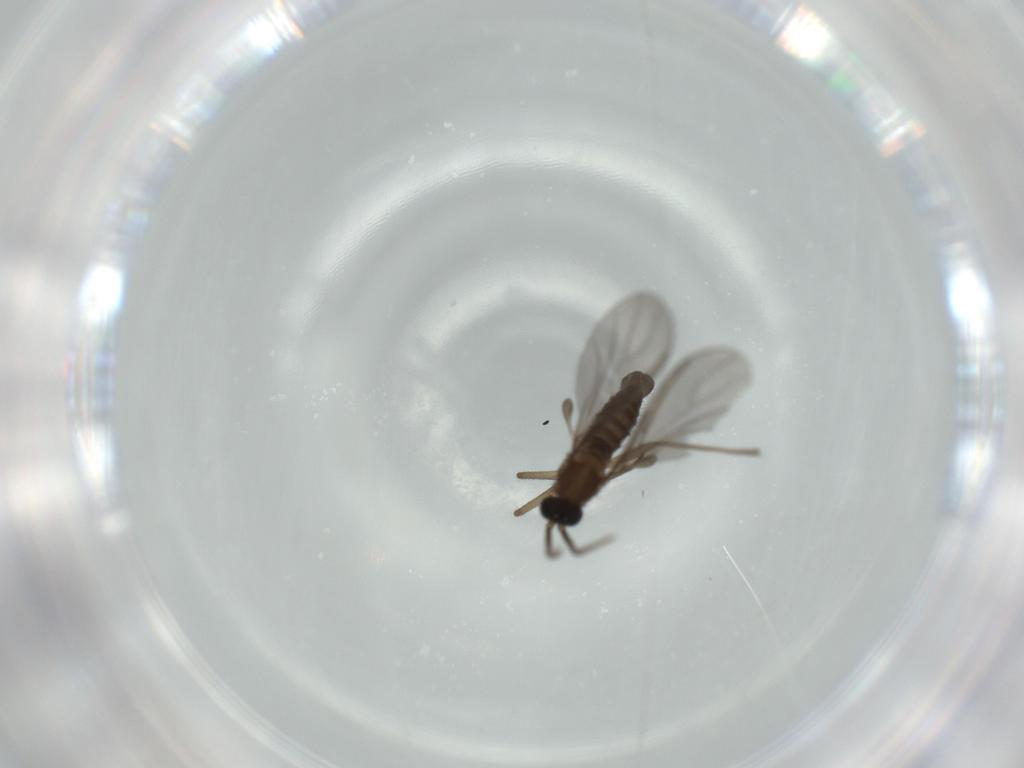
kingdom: Animalia
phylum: Arthropoda
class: Insecta
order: Diptera
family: Sciaridae
